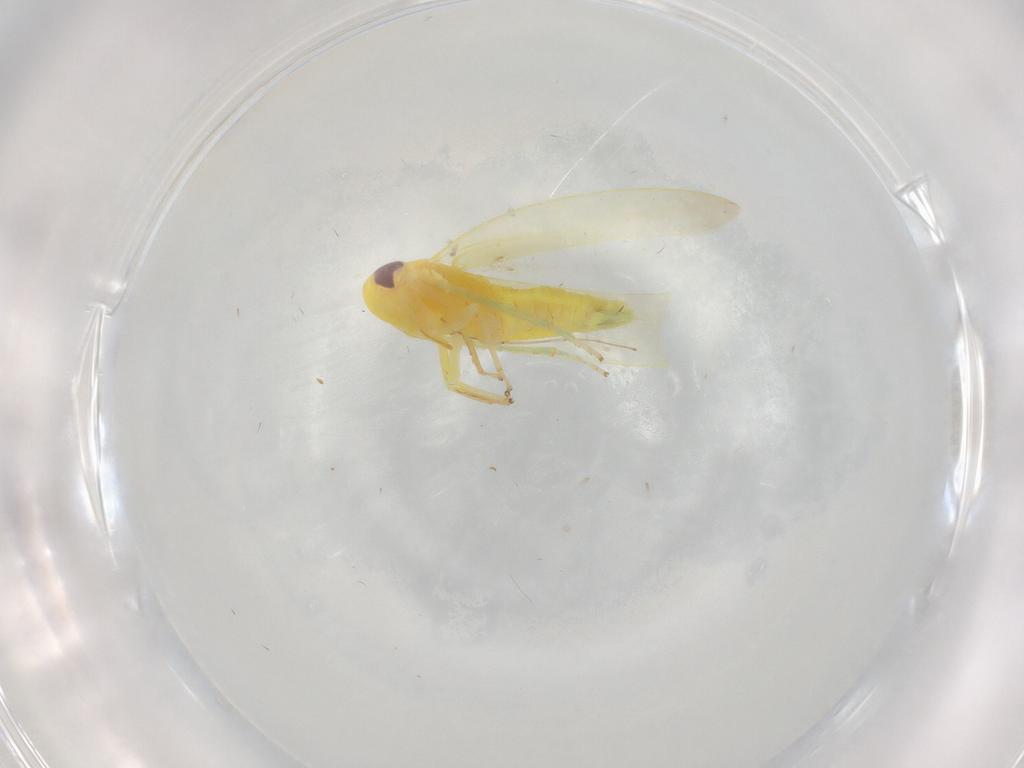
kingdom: Animalia
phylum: Arthropoda
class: Insecta
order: Hemiptera
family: Cicadellidae
